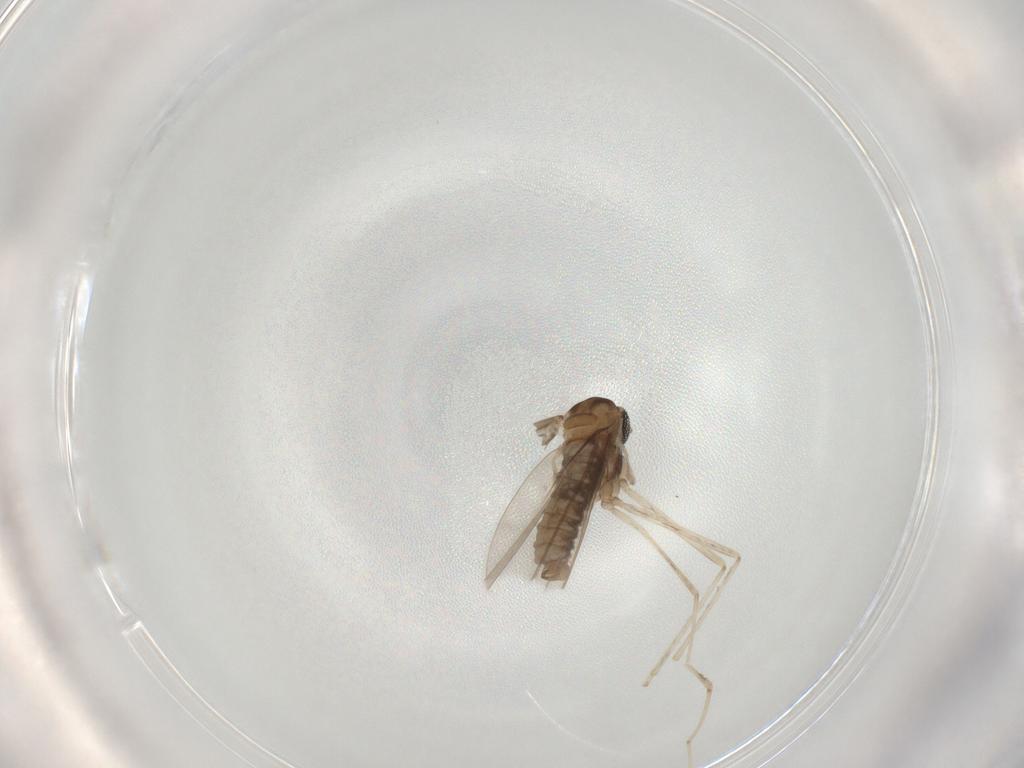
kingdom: Animalia
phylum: Arthropoda
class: Insecta
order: Diptera
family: Cecidomyiidae
